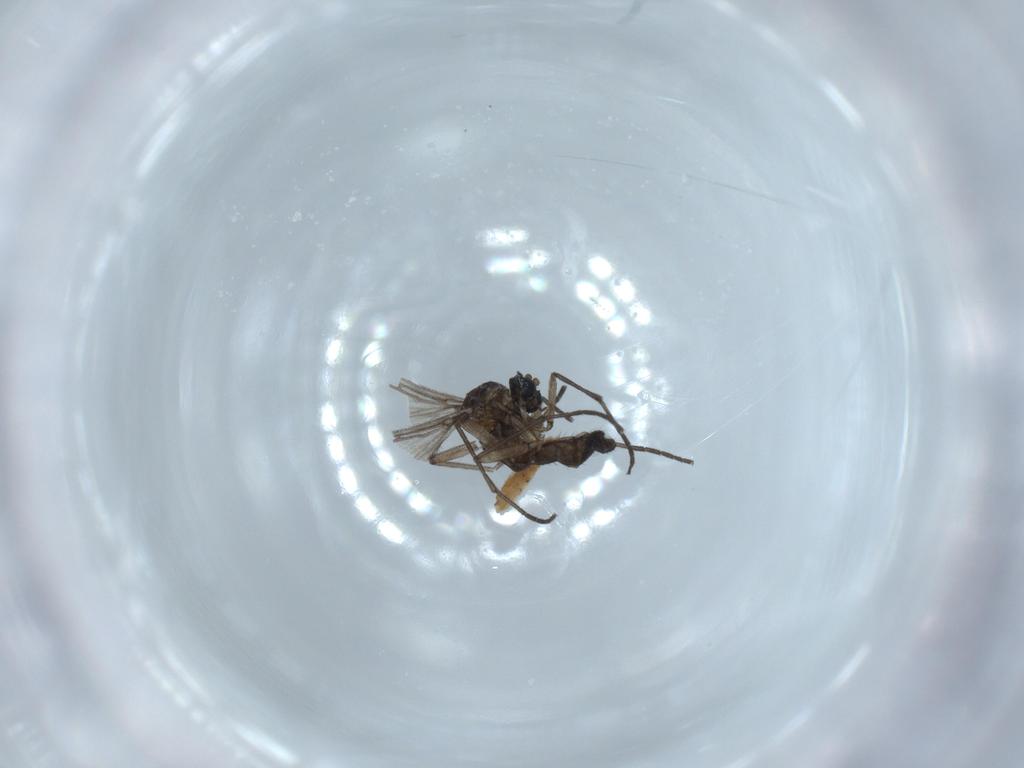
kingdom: Animalia
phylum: Arthropoda
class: Insecta
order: Diptera
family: Sciaridae
